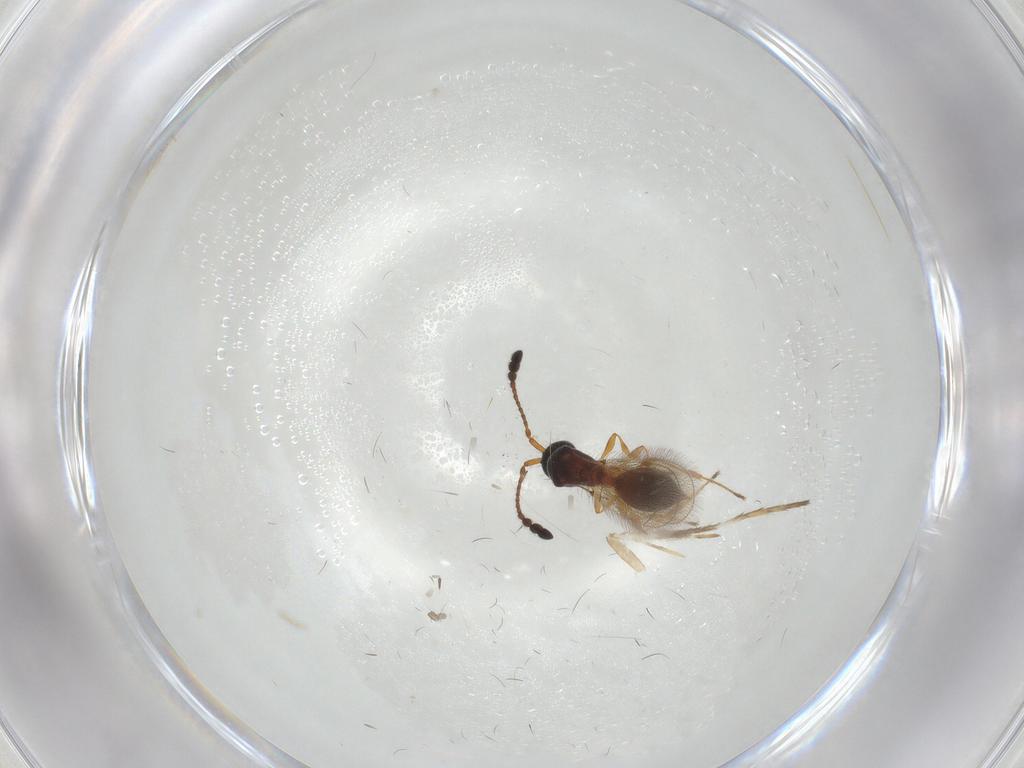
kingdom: Animalia
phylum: Arthropoda
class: Insecta
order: Hymenoptera
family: Diapriidae
